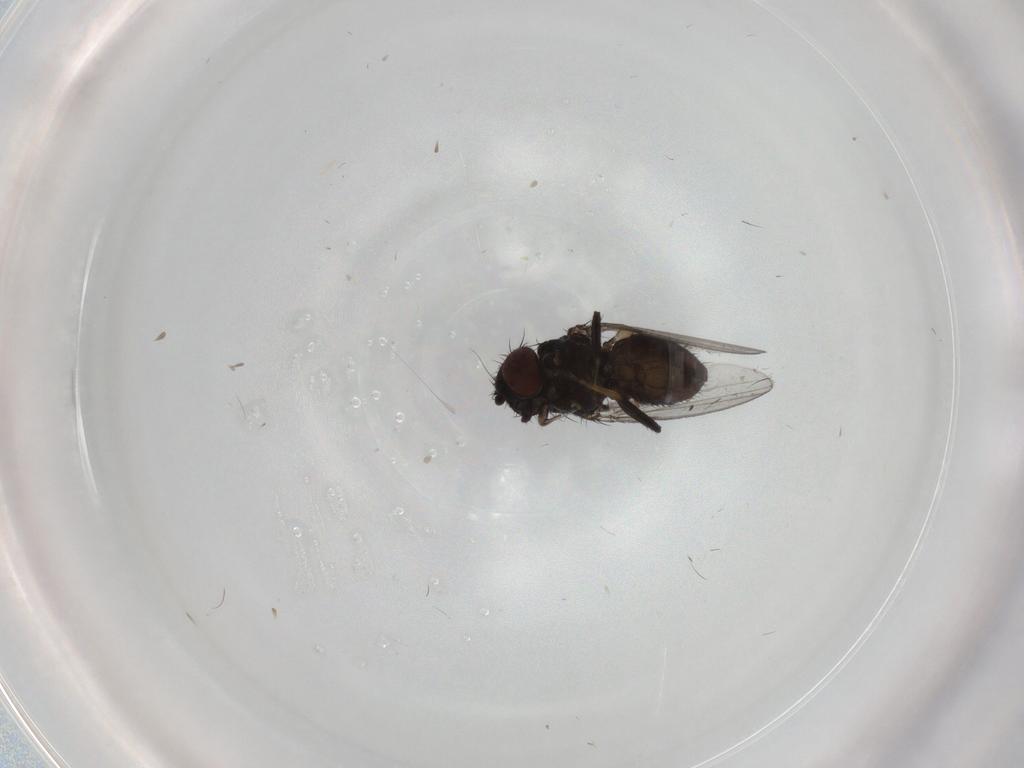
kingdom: Animalia
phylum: Arthropoda
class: Insecta
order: Diptera
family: Milichiidae
